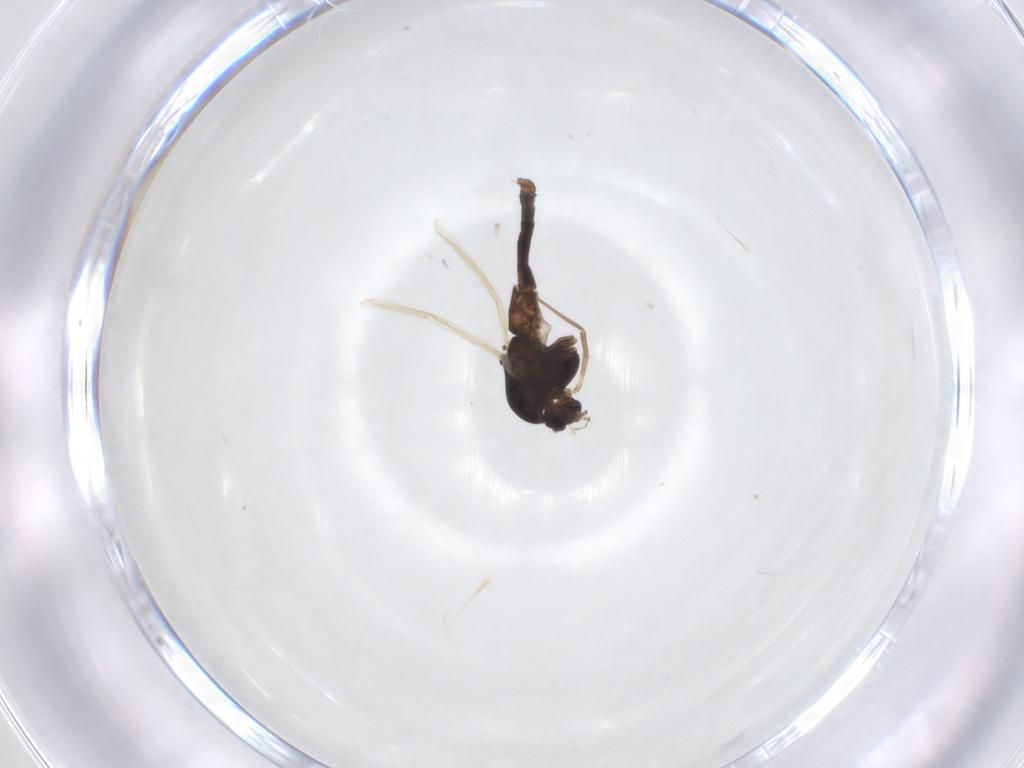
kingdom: Animalia
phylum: Arthropoda
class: Insecta
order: Diptera
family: Chironomidae
